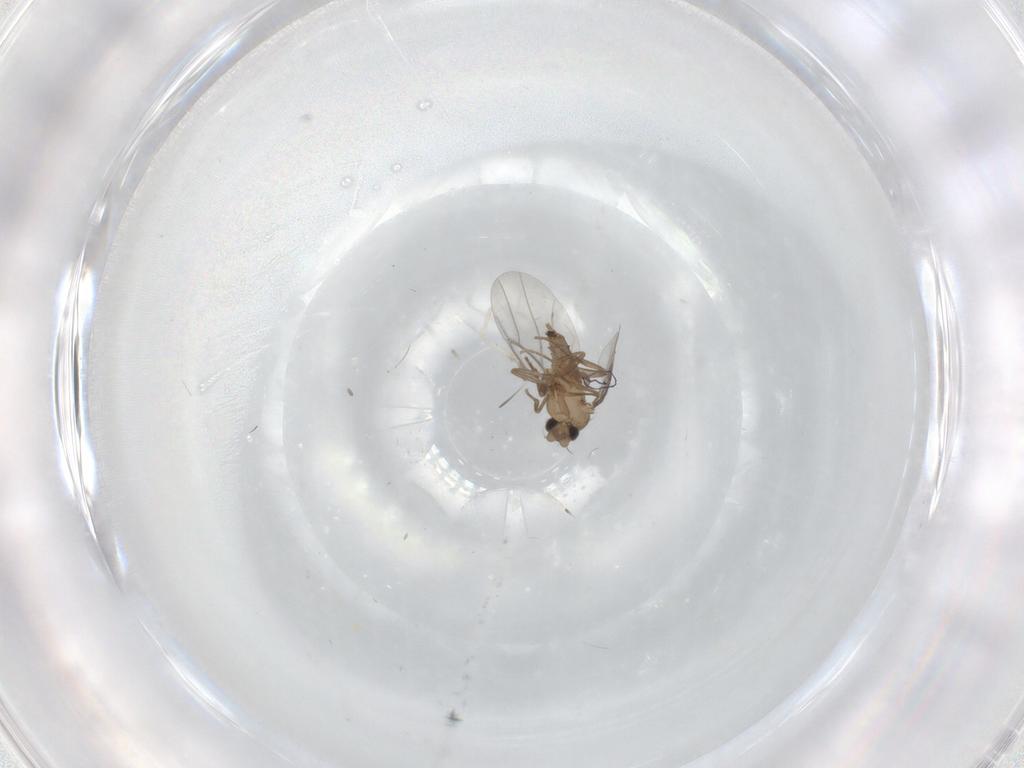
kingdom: Animalia
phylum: Arthropoda
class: Insecta
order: Diptera
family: Psychodidae
